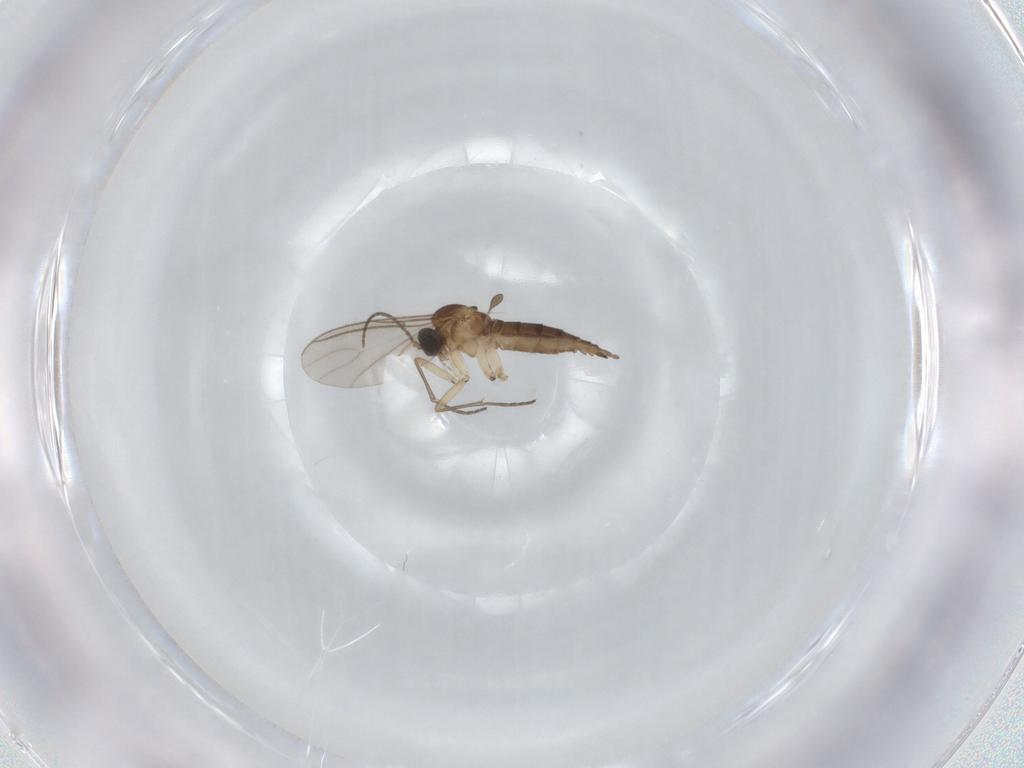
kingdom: Animalia
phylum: Arthropoda
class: Insecta
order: Diptera
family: Sciaridae
